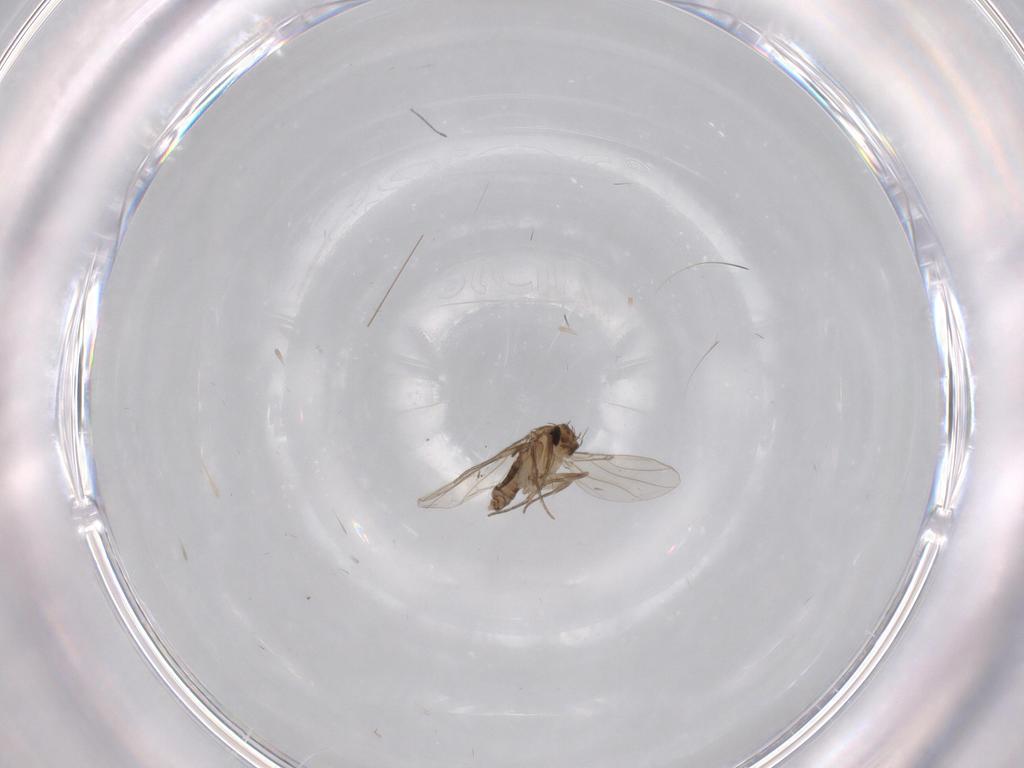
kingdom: Animalia
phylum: Arthropoda
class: Insecta
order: Diptera
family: Phoridae
